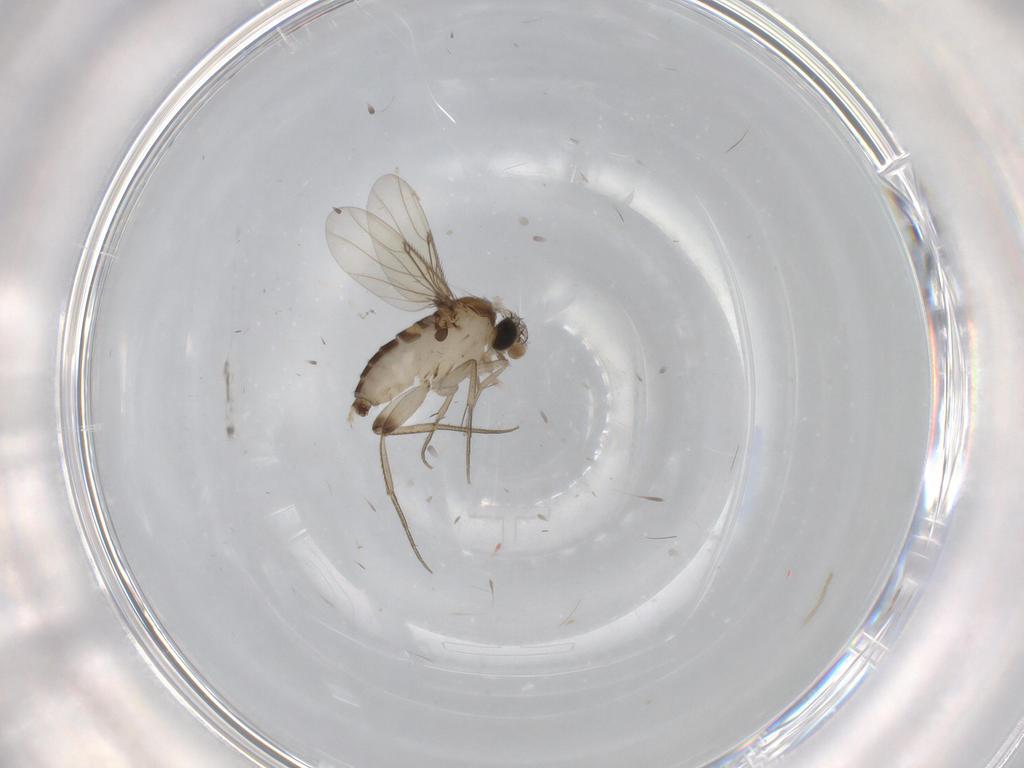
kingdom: Animalia
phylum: Arthropoda
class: Insecta
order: Diptera
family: Phoridae
